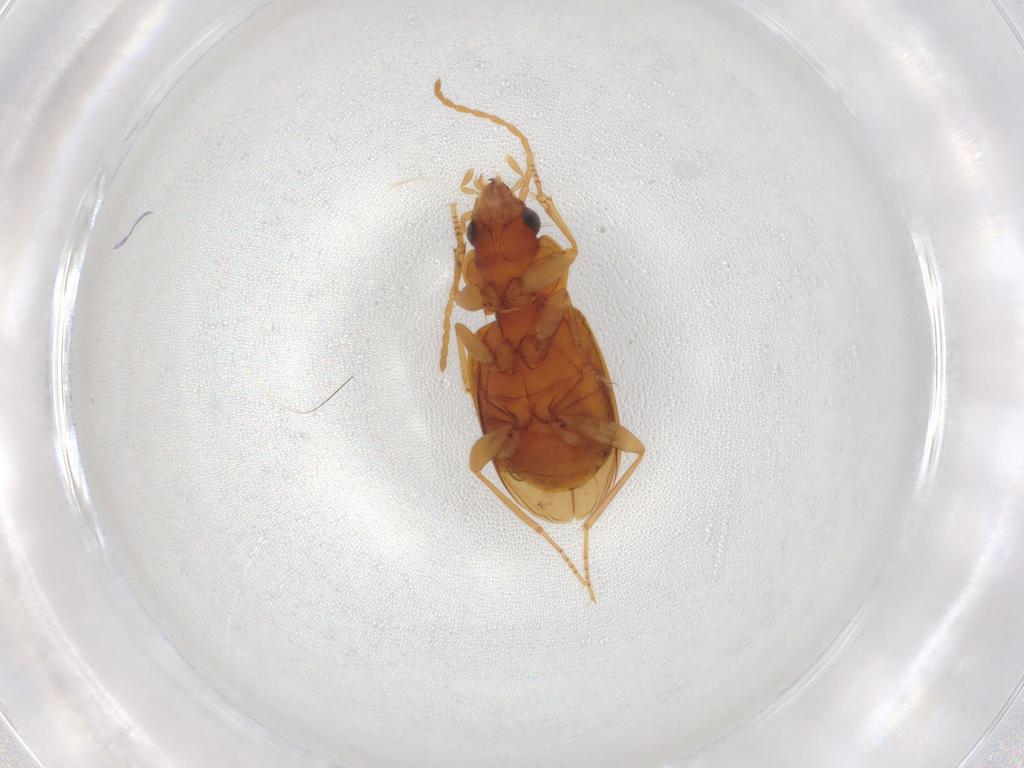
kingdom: Animalia
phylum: Arthropoda
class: Insecta
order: Coleoptera
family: Carabidae
